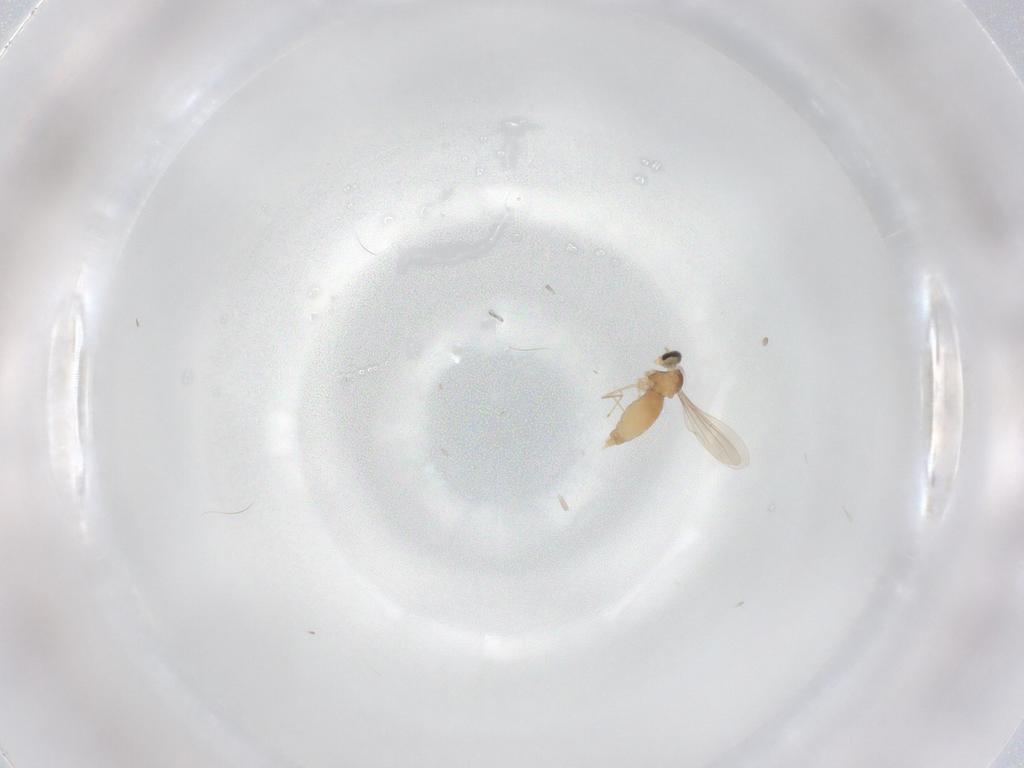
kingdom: Animalia
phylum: Arthropoda
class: Insecta
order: Diptera
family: Cecidomyiidae
